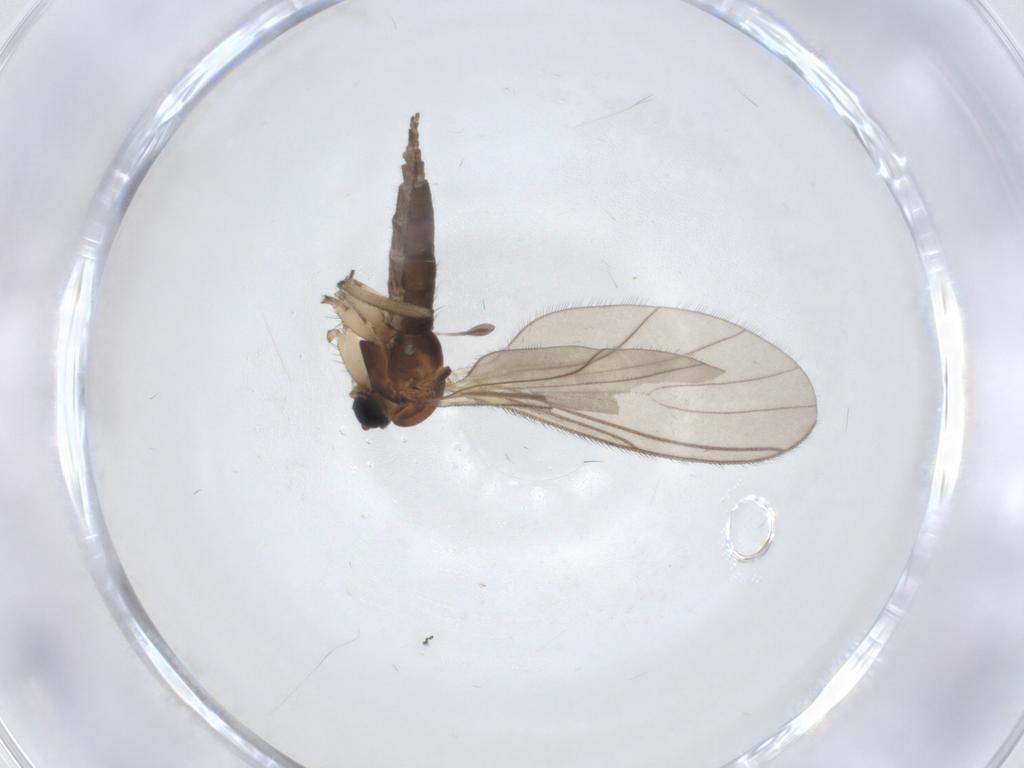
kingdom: Animalia
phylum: Arthropoda
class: Insecta
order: Diptera
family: Sciaridae
